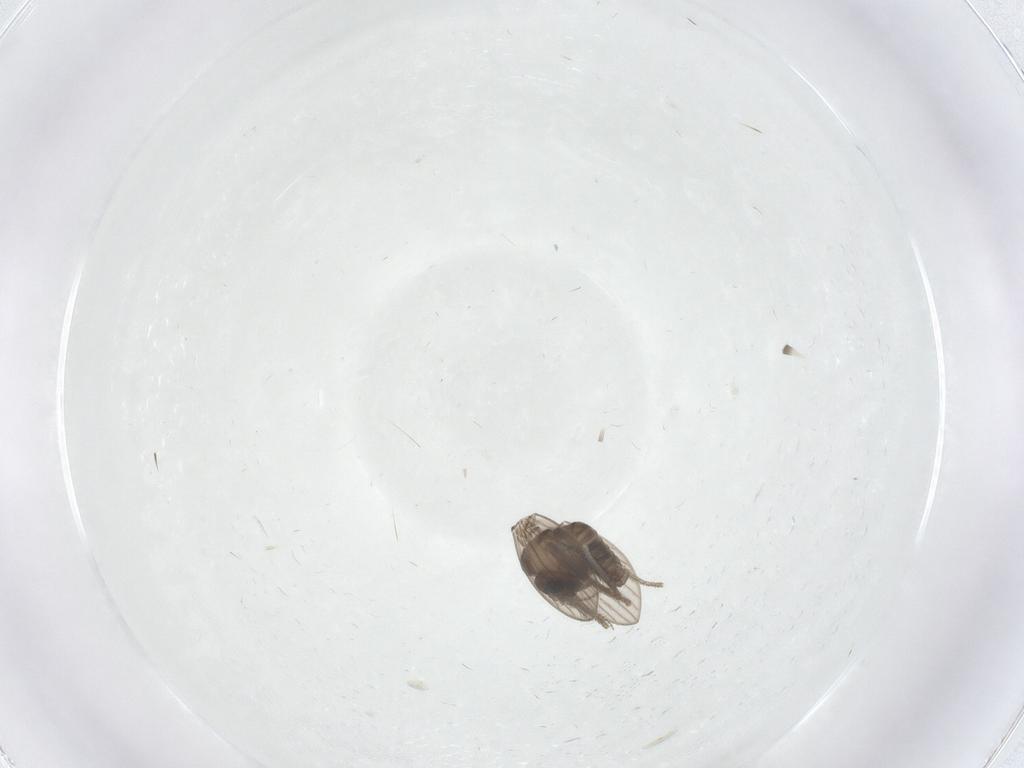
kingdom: Animalia
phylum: Arthropoda
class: Insecta
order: Diptera
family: Psychodidae
